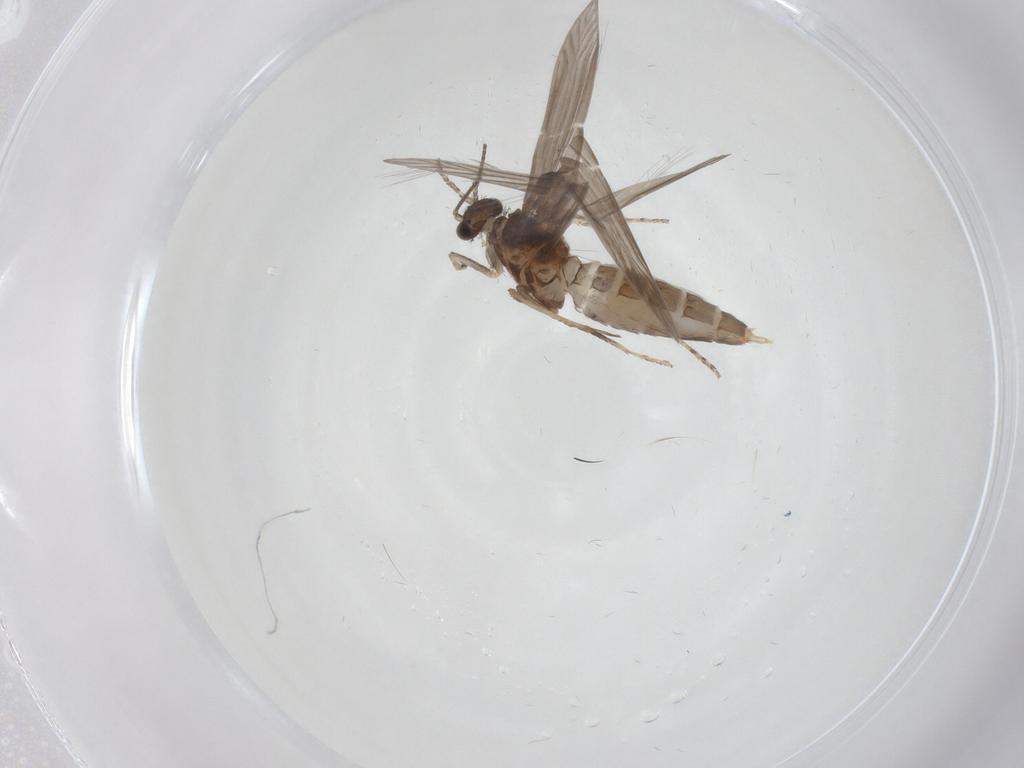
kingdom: Animalia
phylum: Arthropoda
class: Insecta
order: Trichoptera
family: Hydroptilidae
